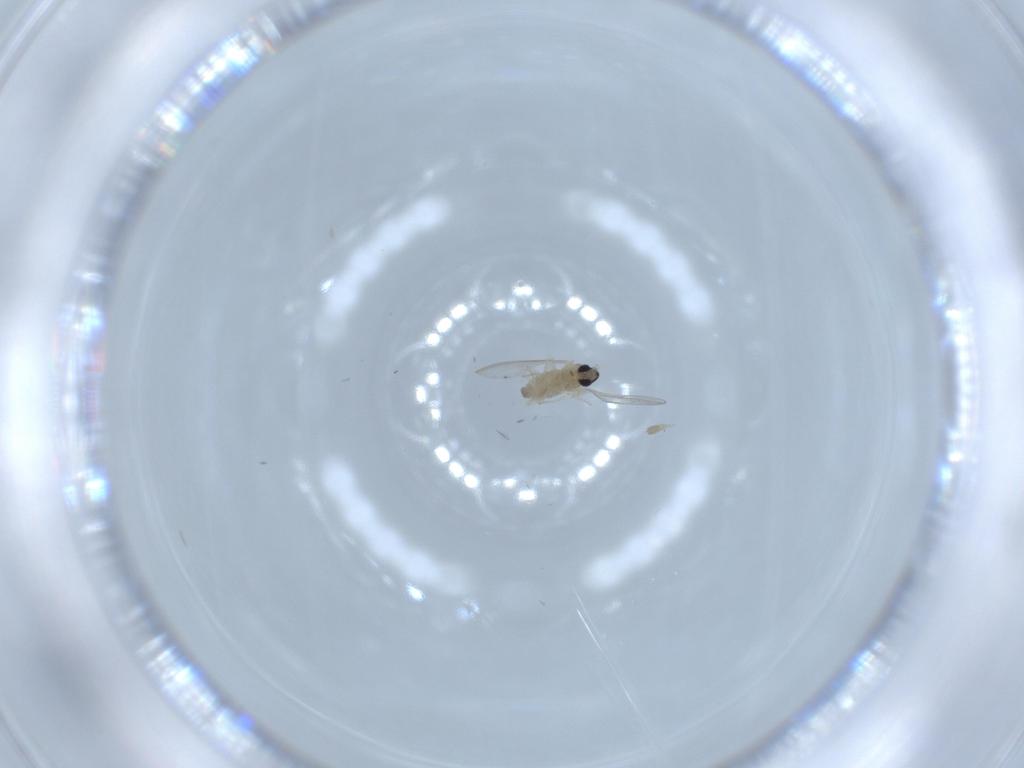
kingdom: Animalia
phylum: Arthropoda
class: Insecta
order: Diptera
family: Cecidomyiidae
